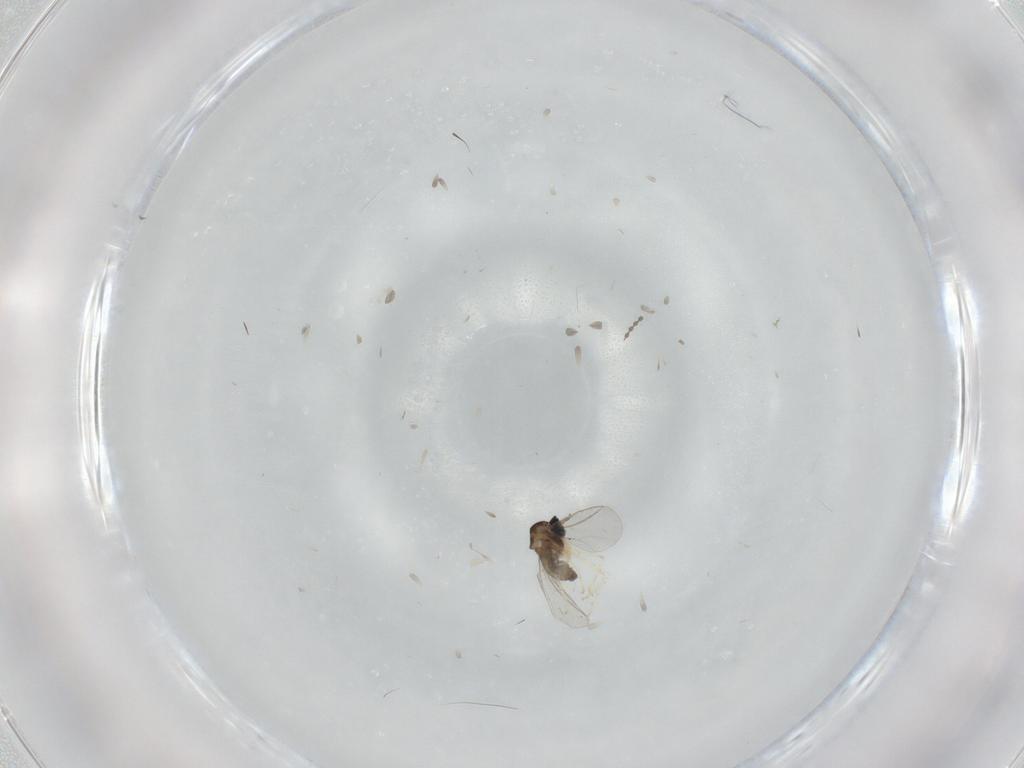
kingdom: Animalia
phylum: Arthropoda
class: Insecta
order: Diptera
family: Cecidomyiidae
